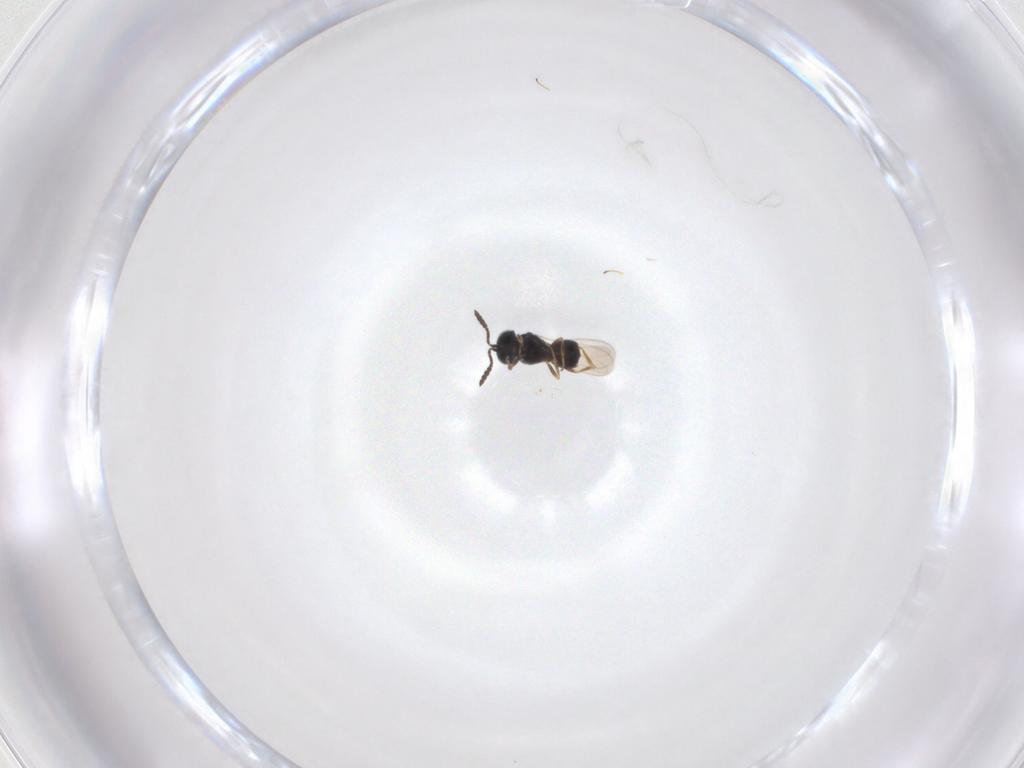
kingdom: Animalia
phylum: Arthropoda
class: Insecta
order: Hymenoptera
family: Scelionidae
